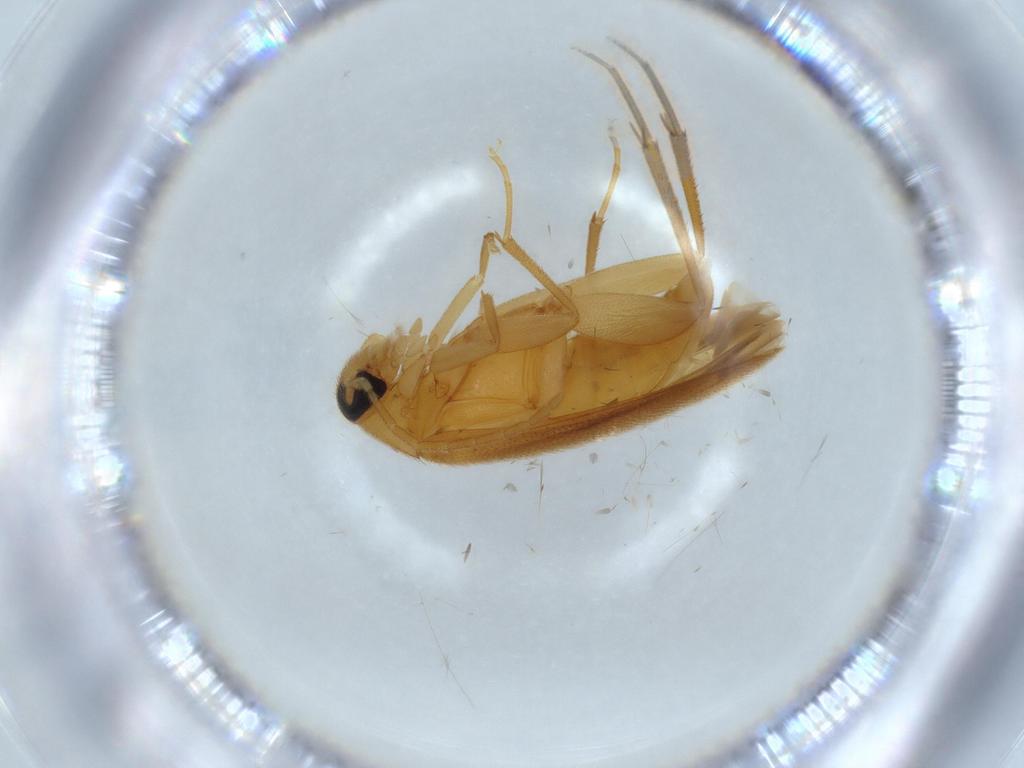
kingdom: Animalia
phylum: Arthropoda
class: Insecta
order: Coleoptera
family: Scraptiidae
